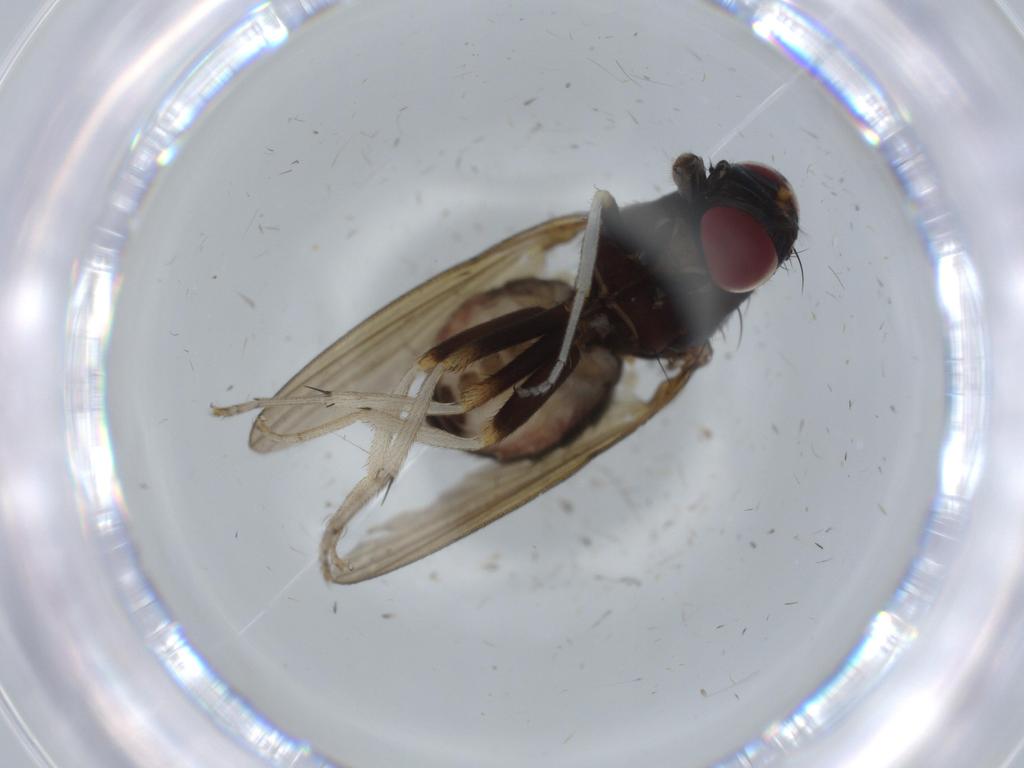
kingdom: Animalia
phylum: Arthropoda
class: Insecta
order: Diptera
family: Lauxaniidae
